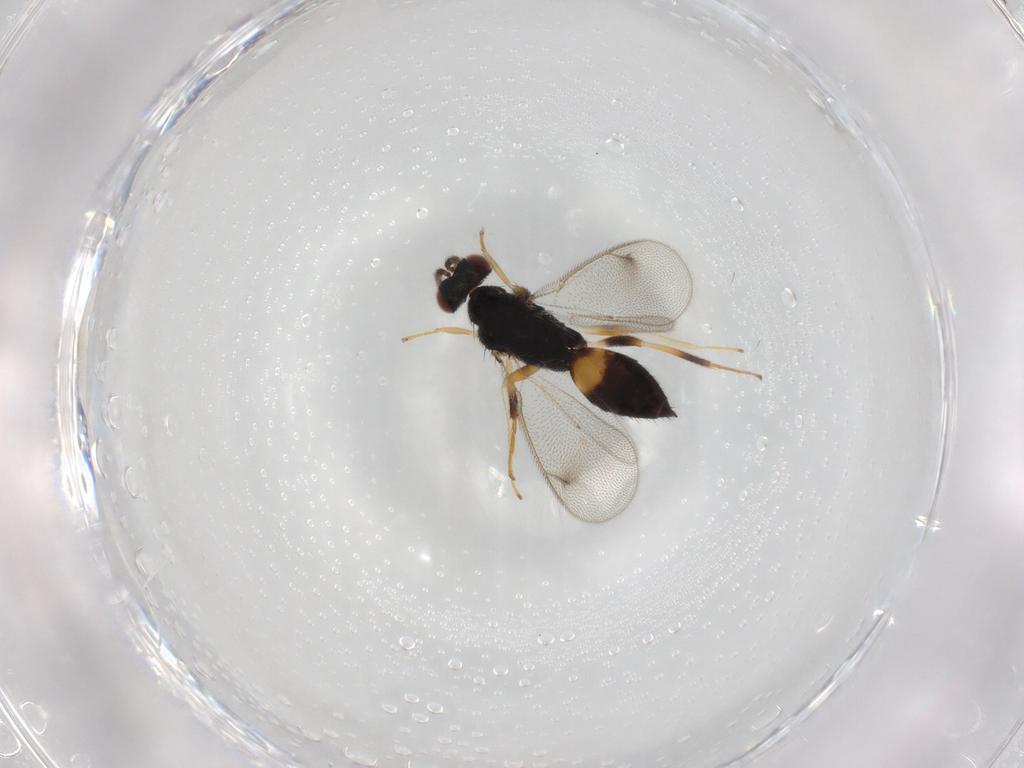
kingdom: Animalia
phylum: Arthropoda
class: Insecta
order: Hymenoptera
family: Eulophidae
